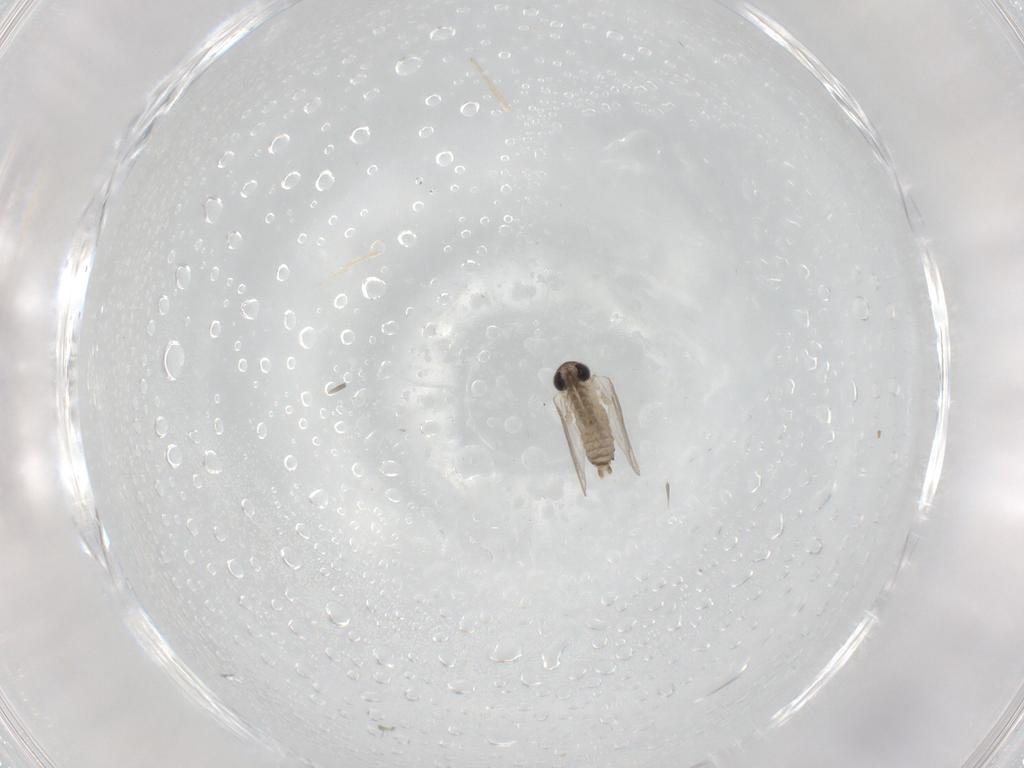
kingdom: Animalia
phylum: Arthropoda
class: Insecta
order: Diptera
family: Psychodidae
